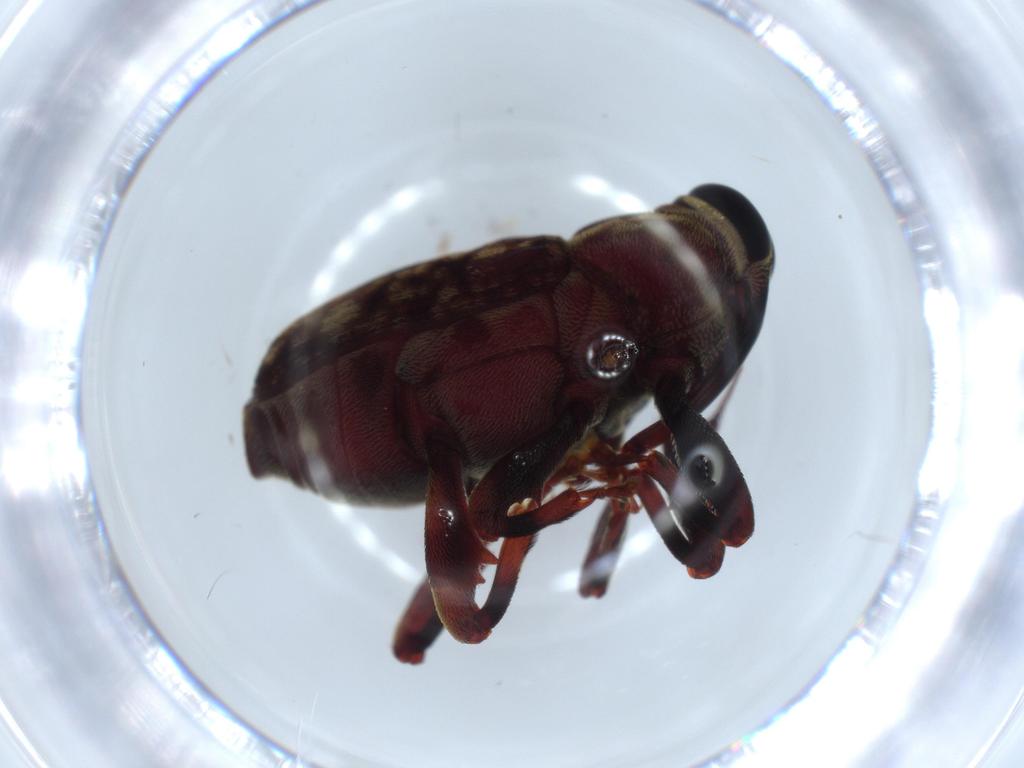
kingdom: Animalia
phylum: Arthropoda
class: Insecta
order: Coleoptera
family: Curculionidae
